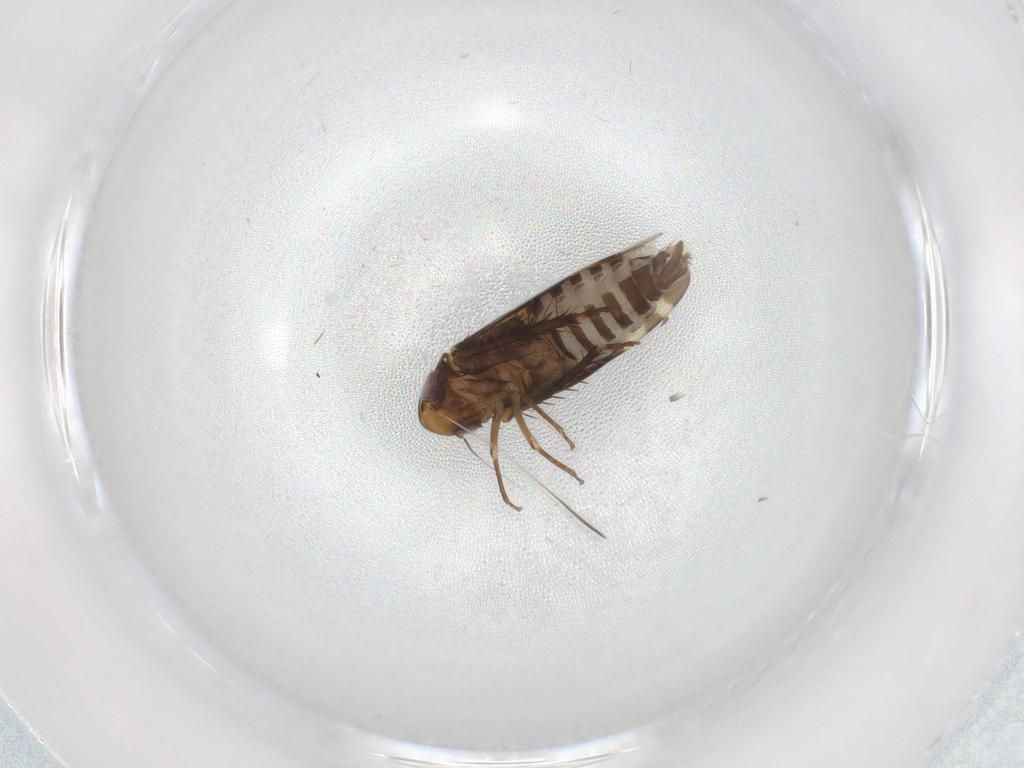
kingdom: Animalia
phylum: Arthropoda
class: Insecta
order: Hemiptera
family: Cicadellidae
